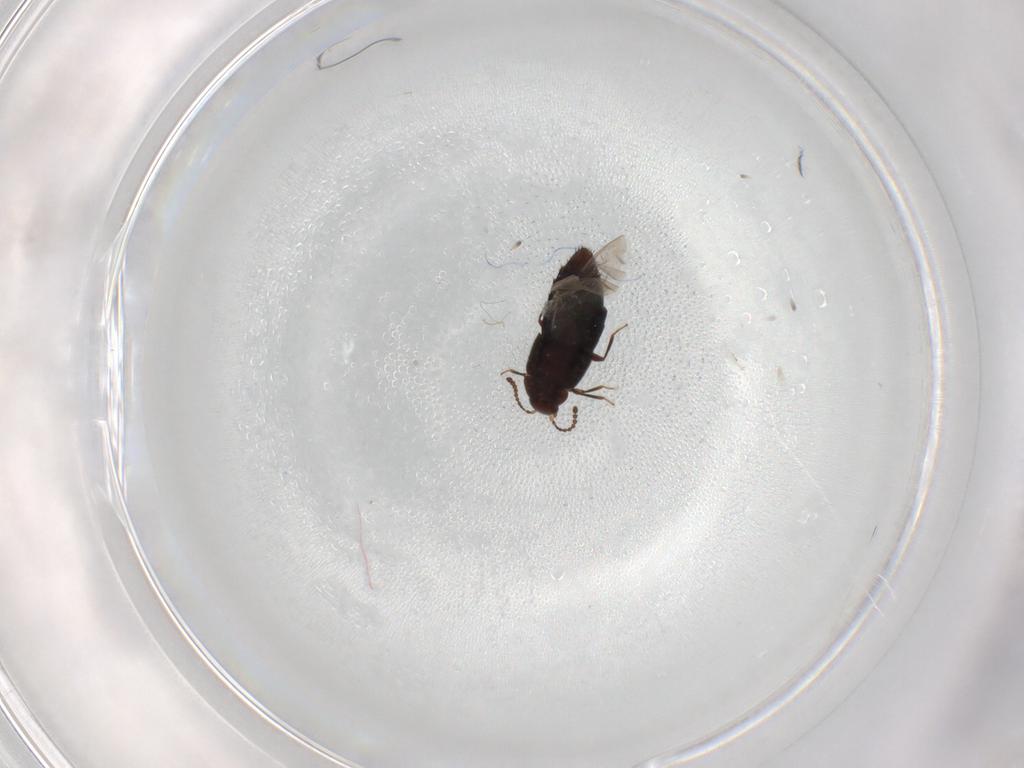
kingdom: Animalia
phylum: Arthropoda
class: Insecta
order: Coleoptera
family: Staphylinidae
